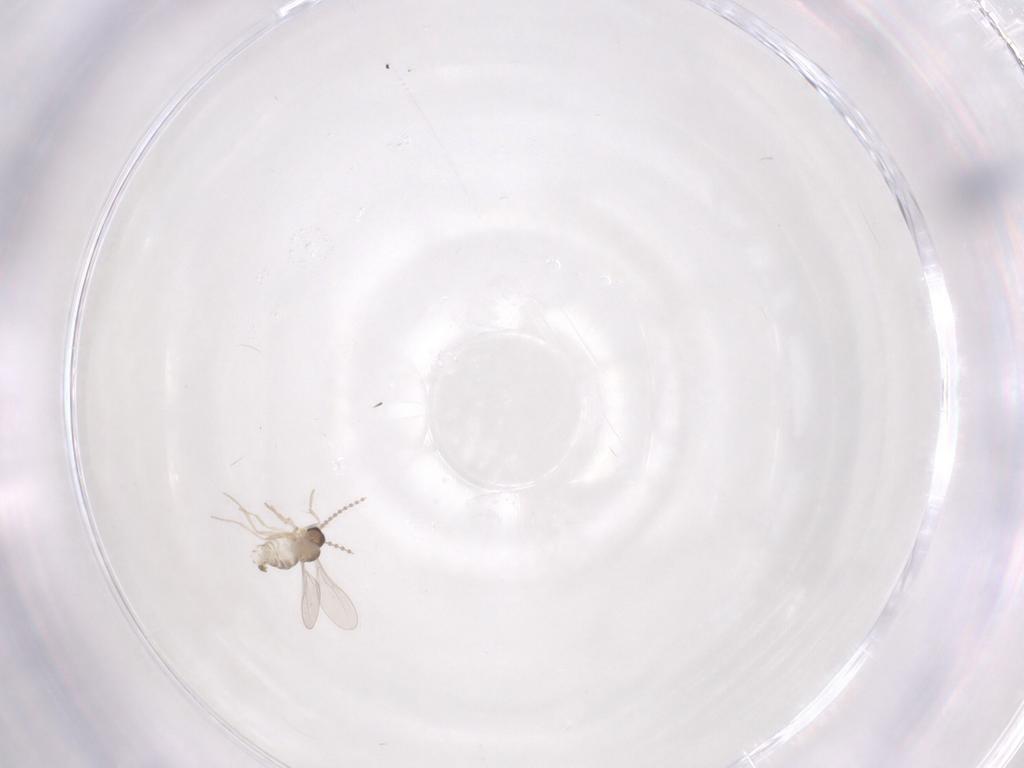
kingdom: Animalia
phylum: Arthropoda
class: Insecta
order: Diptera
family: Cecidomyiidae
